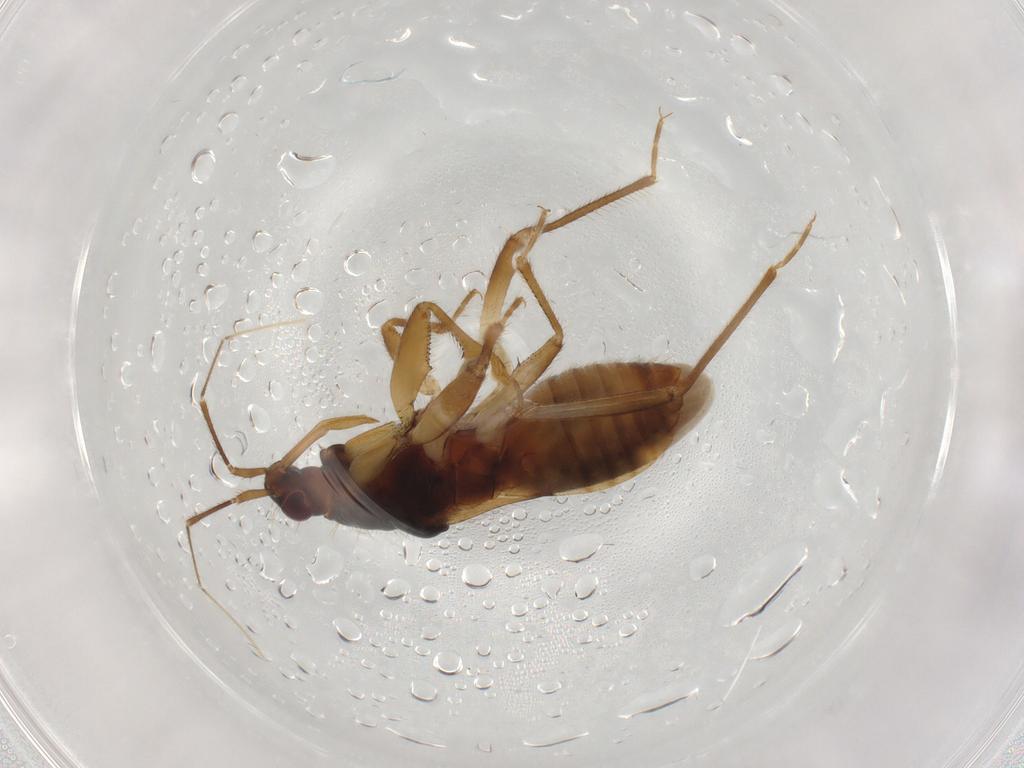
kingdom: Animalia
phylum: Arthropoda
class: Insecta
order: Hemiptera
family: Nabidae
